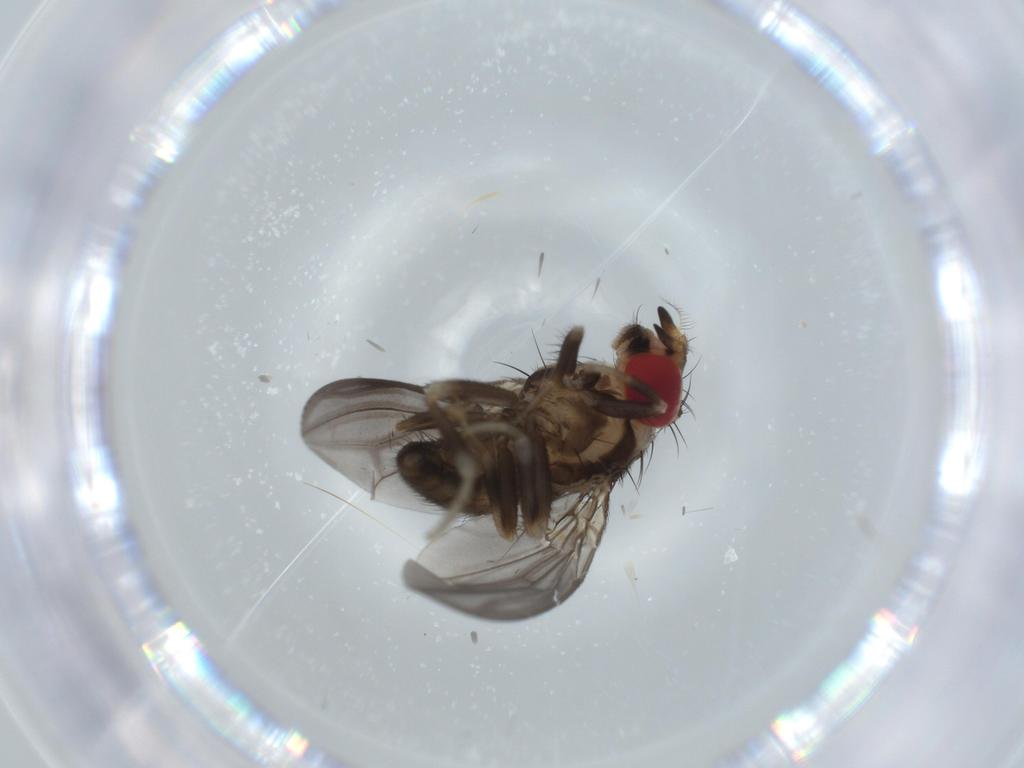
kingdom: Animalia
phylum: Arthropoda
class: Insecta
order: Diptera
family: Drosophilidae
